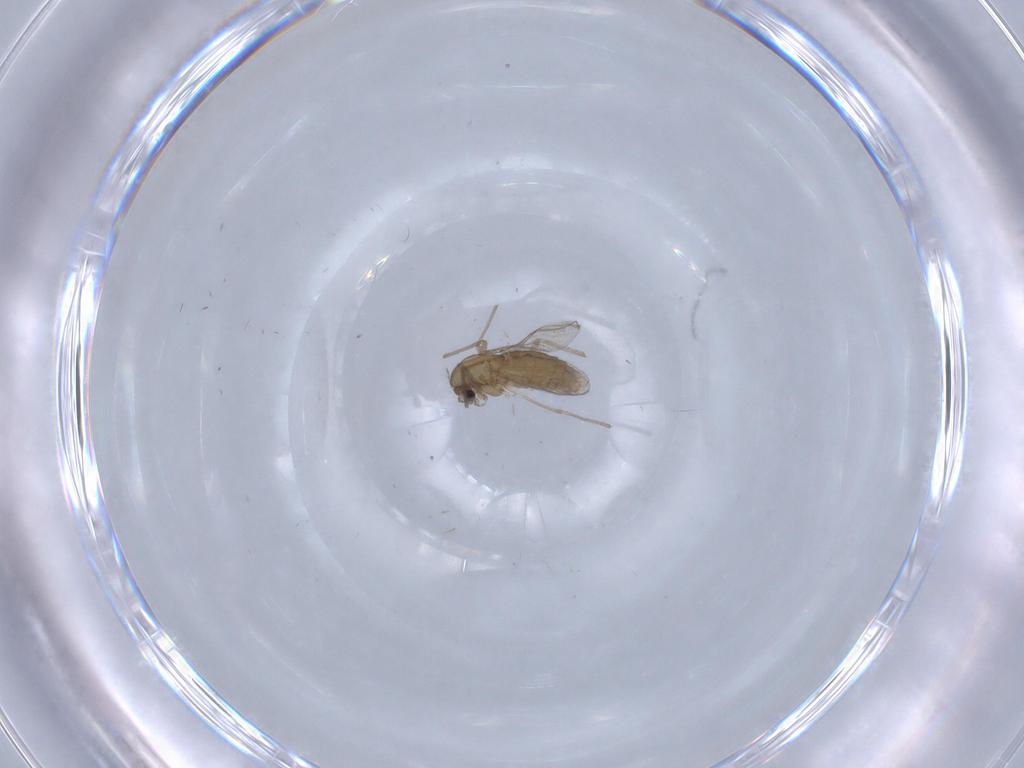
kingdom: Animalia
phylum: Arthropoda
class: Insecta
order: Diptera
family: Chironomidae
